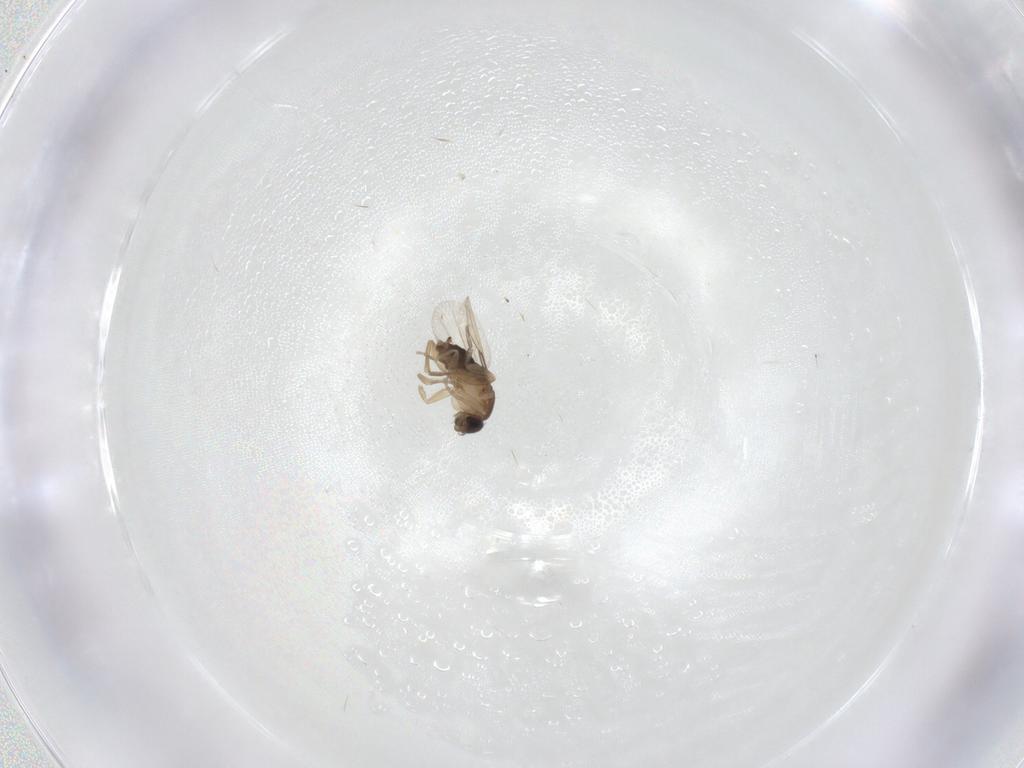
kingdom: Animalia
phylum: Arthropoda
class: Insecta
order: Diptera
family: Phoridae
